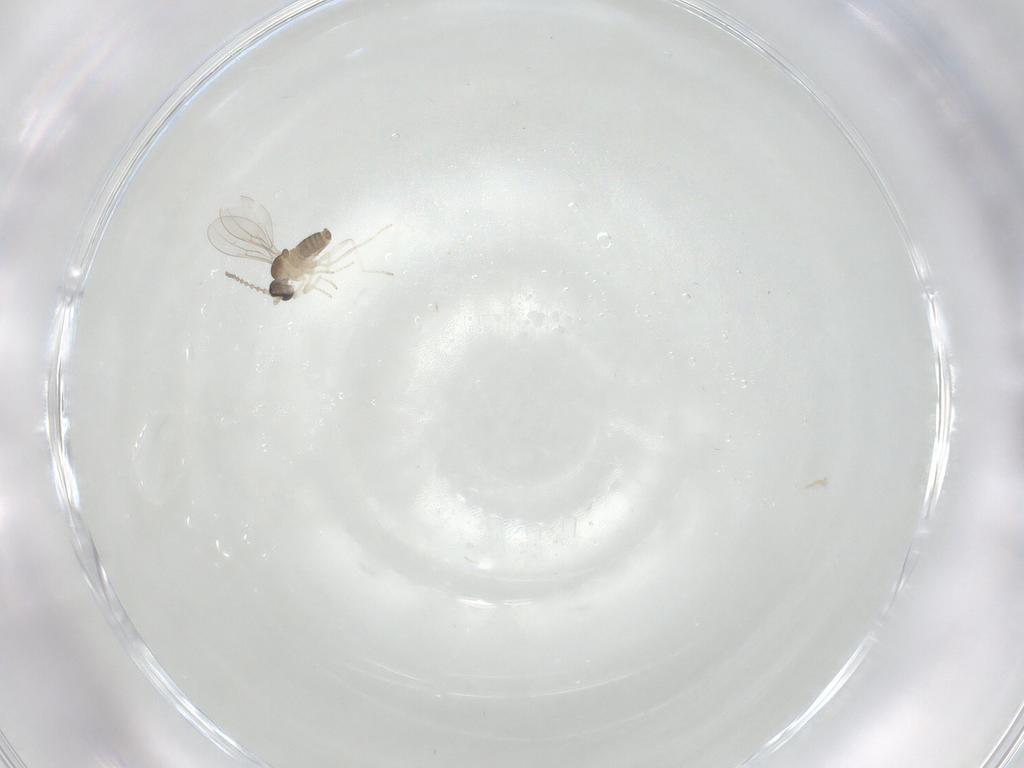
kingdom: Animalia
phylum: Arthropoda
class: Insecta
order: Diptera
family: Cecidomyiidae
